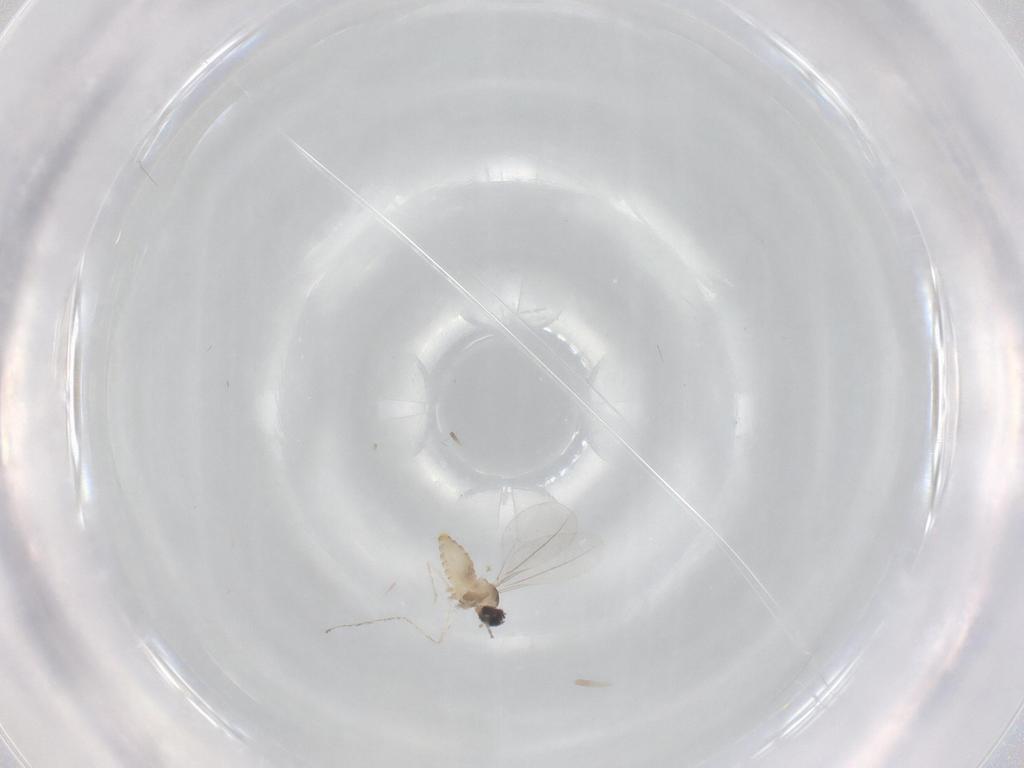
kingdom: Animalia
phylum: Arthropoda
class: Insecta
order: Diptera
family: Cecidomyiidae
